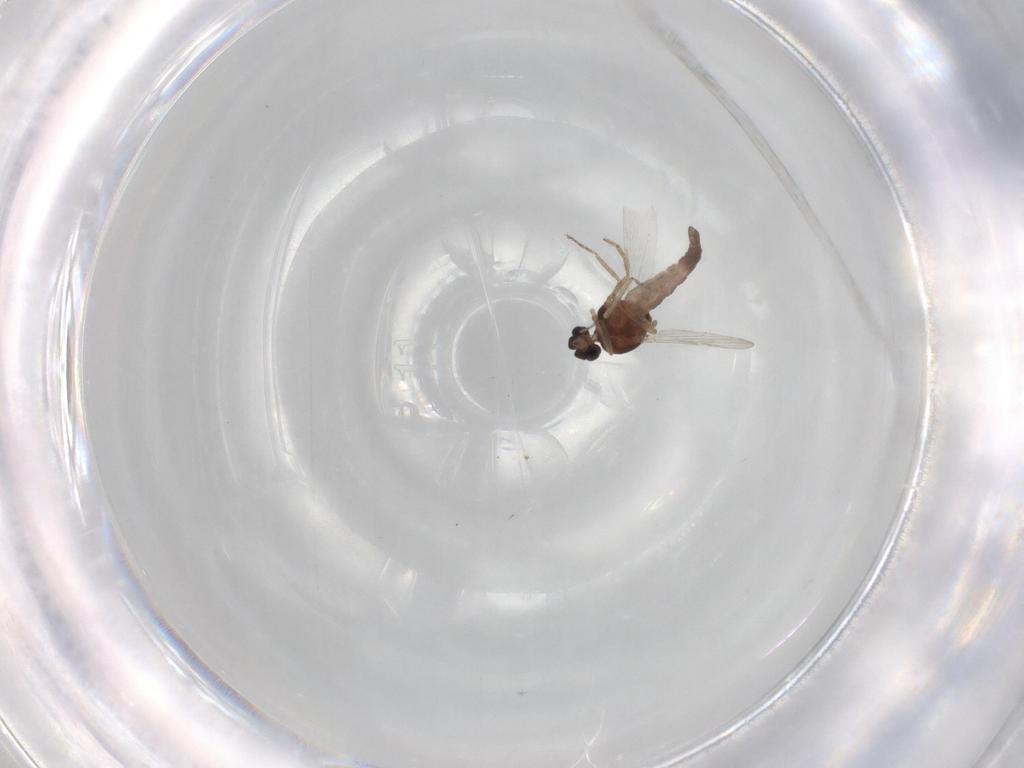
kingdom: Animalia
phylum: Arthropoda
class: Insecta
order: Diptera
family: Ceratopogonidae
